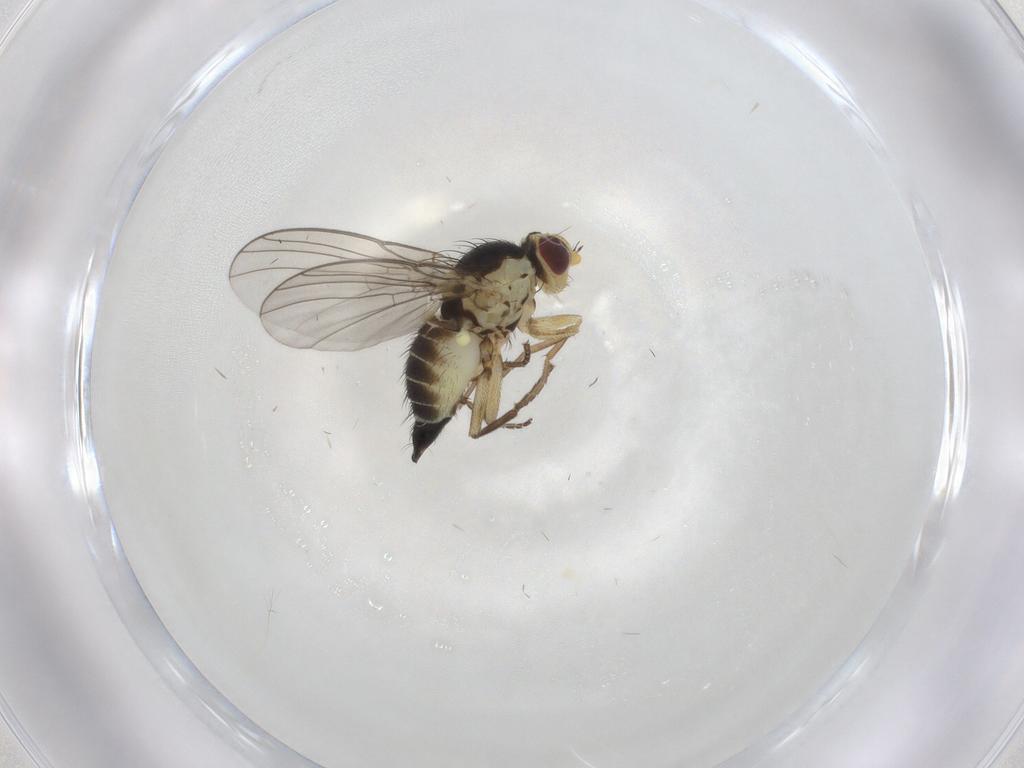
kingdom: Animalia
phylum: Arthropoda
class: Insecta
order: Diptera
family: Agromyzidae
